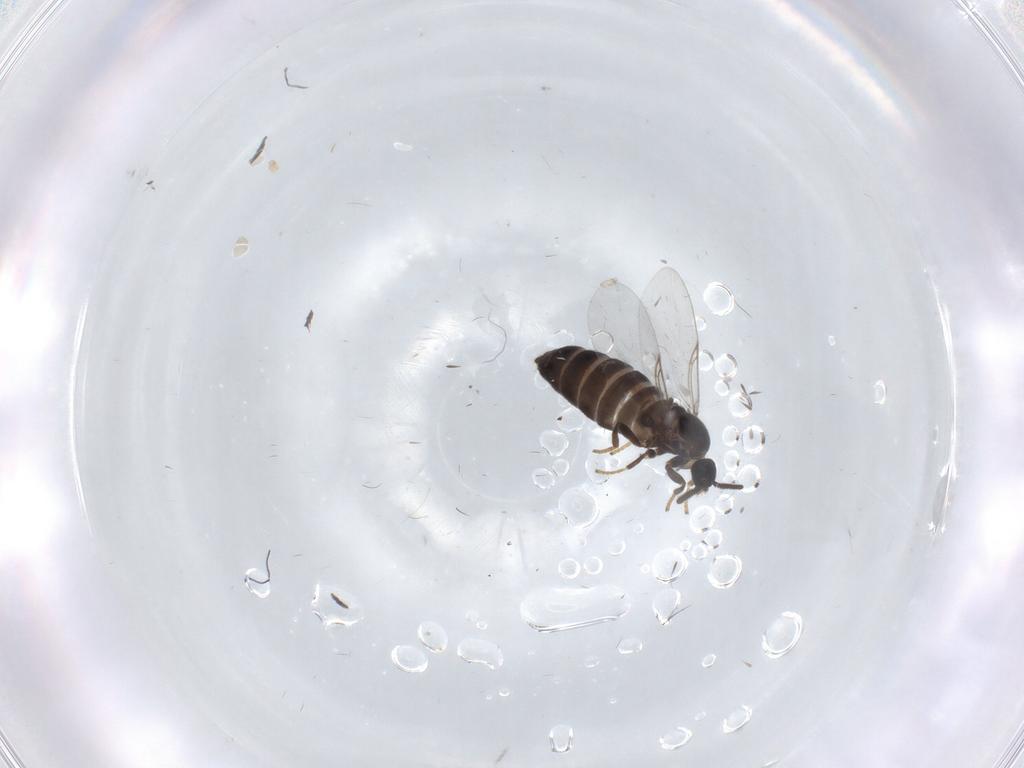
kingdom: Animalia
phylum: Arthropoda
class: Insecta
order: Diptera
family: Scatopsidae
